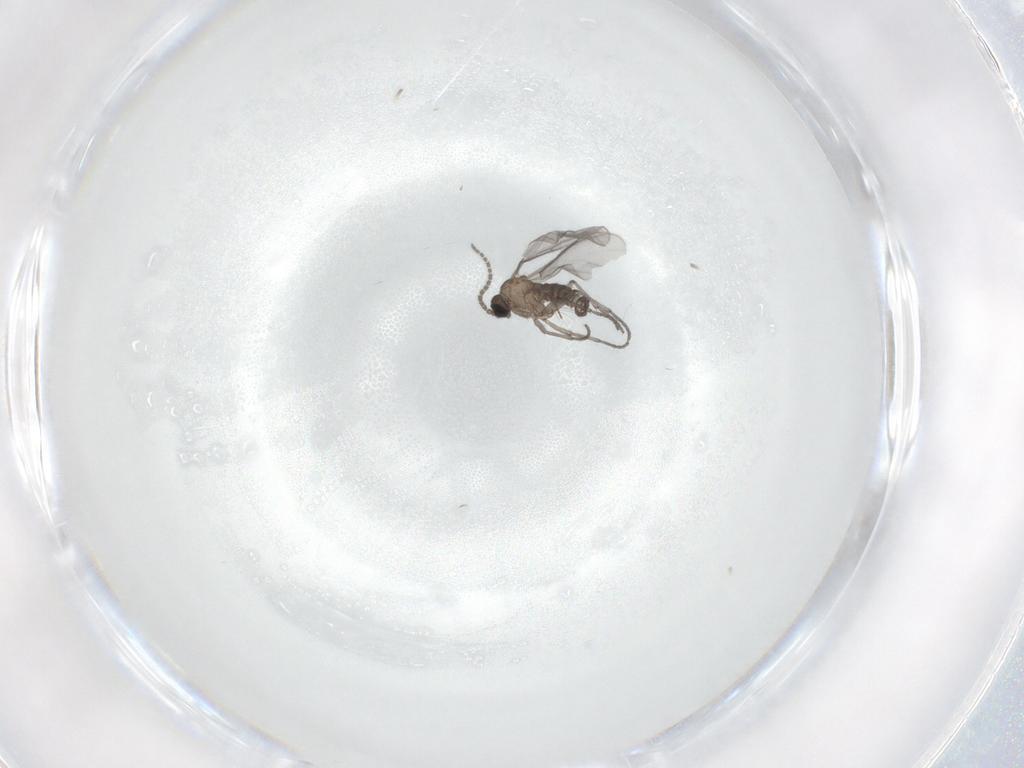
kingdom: Animalia
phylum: Arthropoda
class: Insecta
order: Diptera
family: Sciaridae
